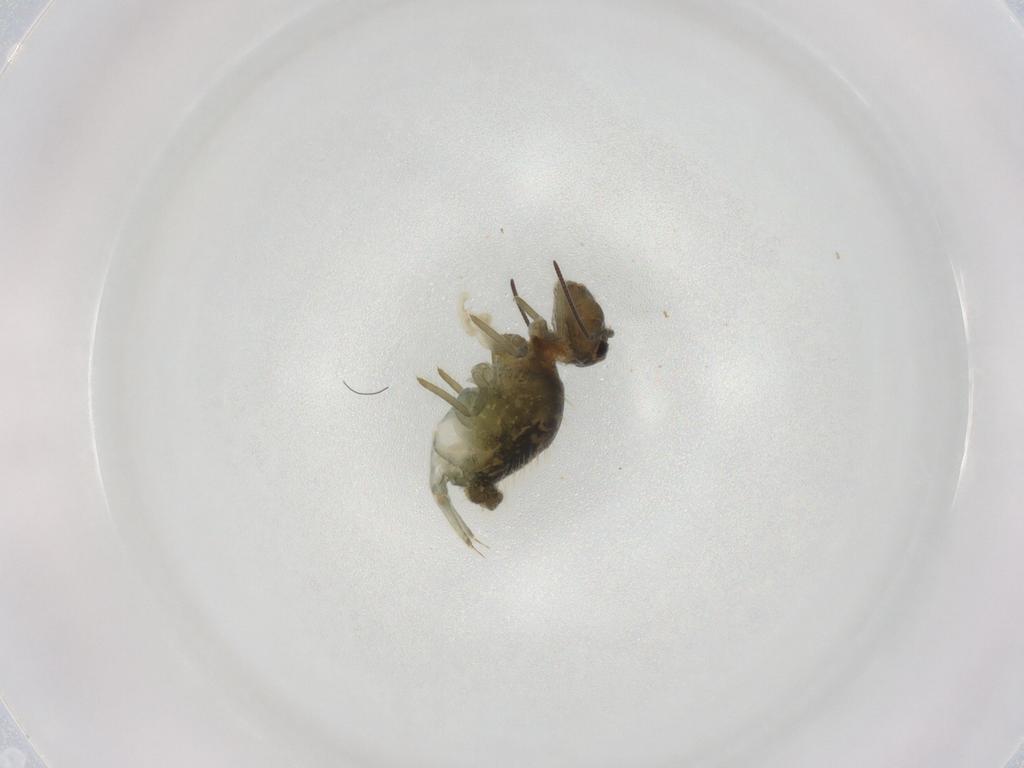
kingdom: Animalia
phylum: Arthropoda
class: Collembola
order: Symphypleona
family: Sminthuridae
